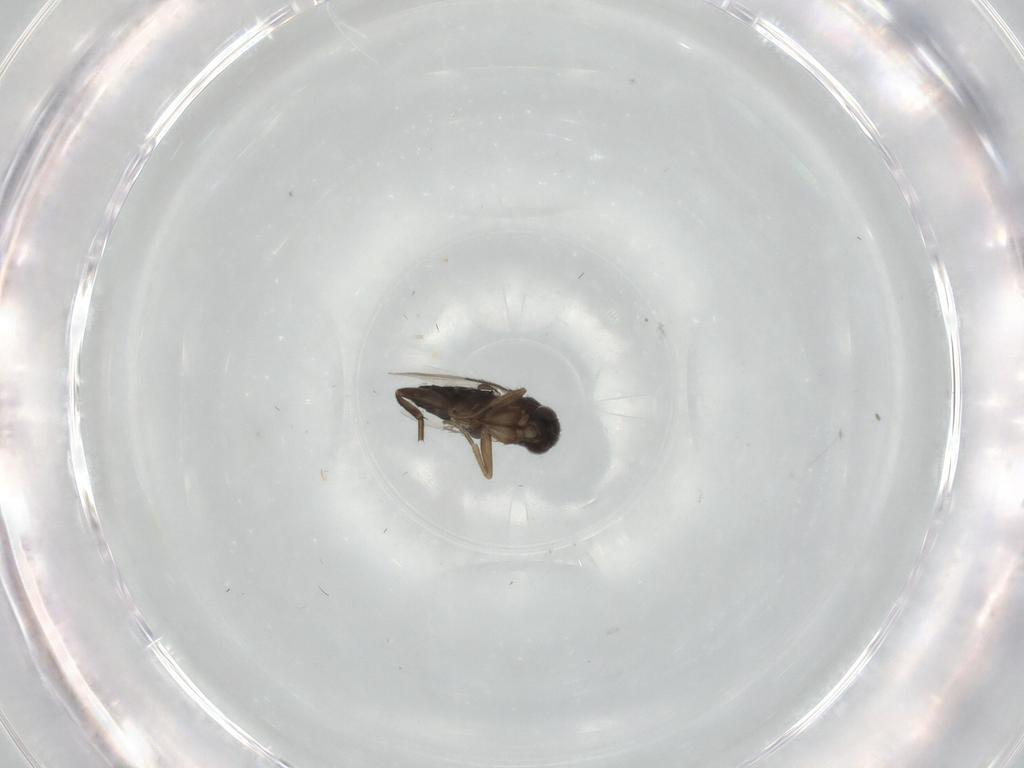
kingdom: Animalia
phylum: Arthropoda
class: Insecta
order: Diptera
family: Phoridae
